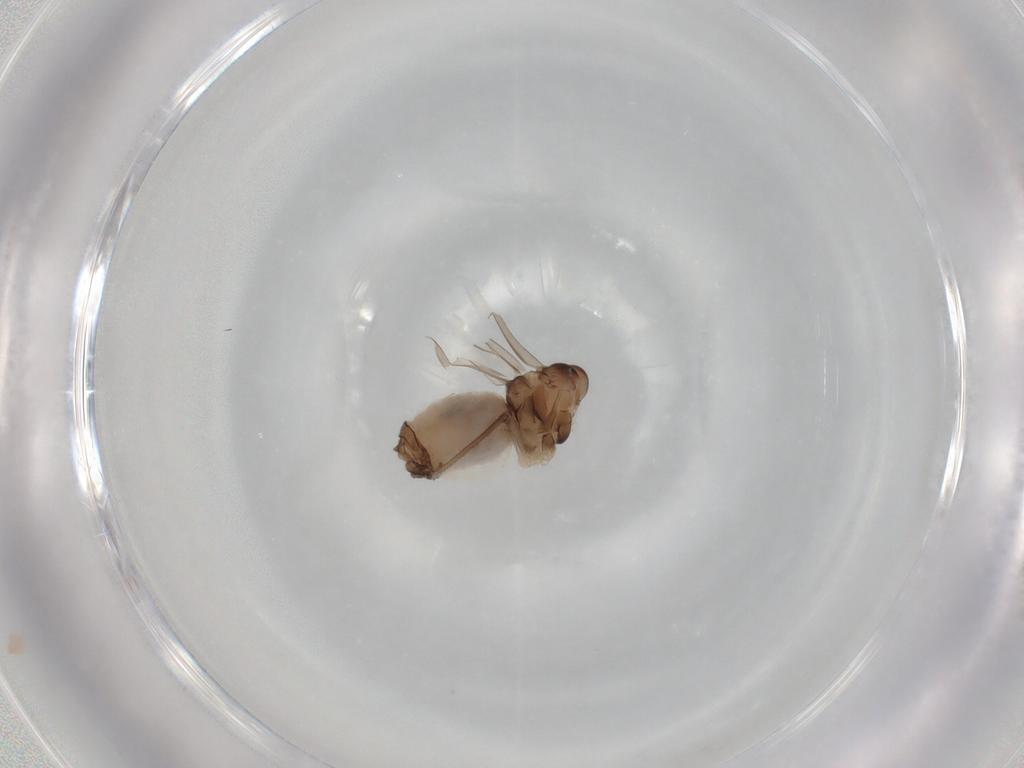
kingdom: Animalia
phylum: Arthropoda
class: Insecta
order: Psocodea
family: Peripsocidae
